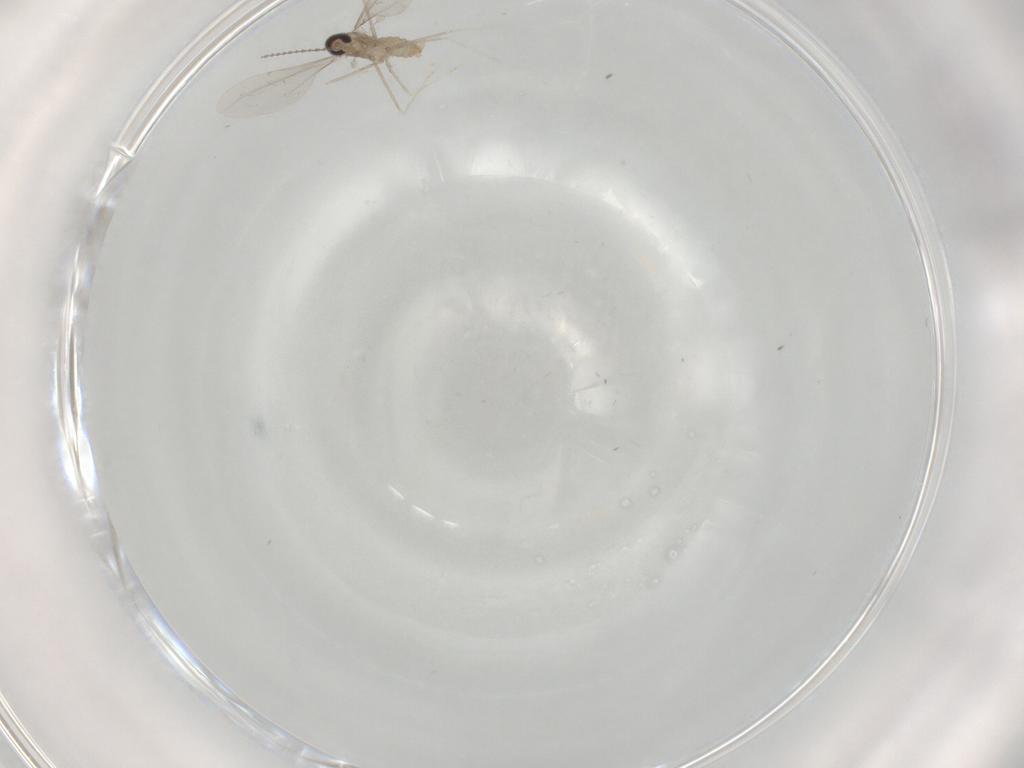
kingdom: Animalia
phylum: Arthropoda
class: Insecta
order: Diptera
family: Cecidomyiidae
